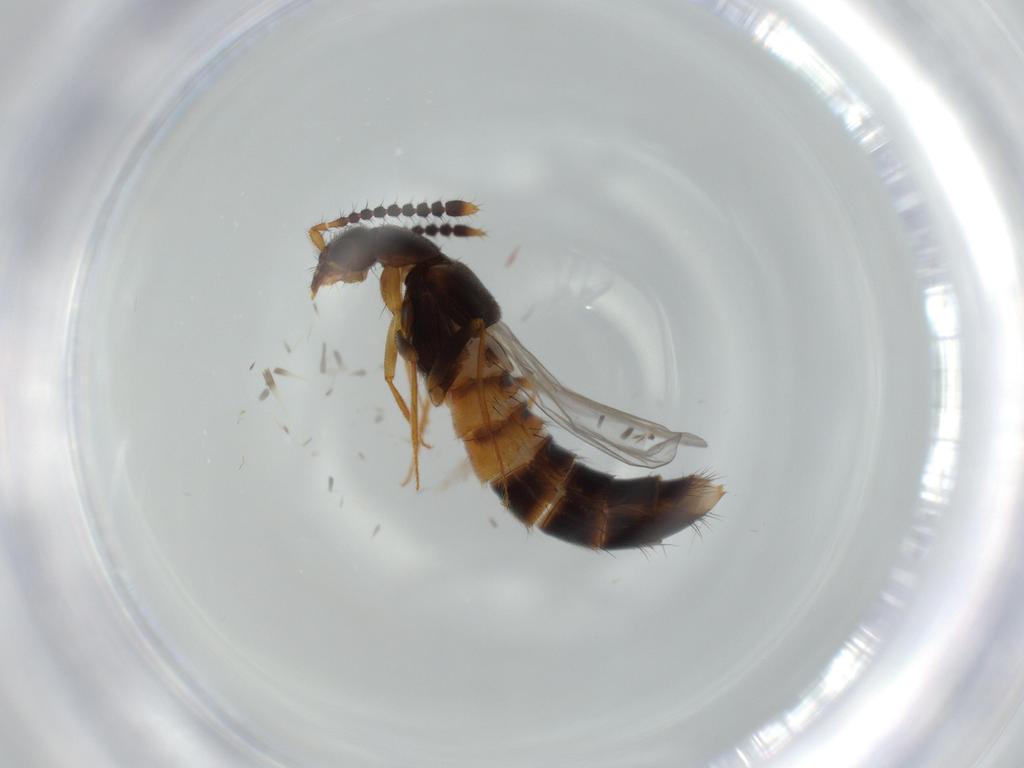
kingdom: Animalia
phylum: Arthropoda
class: Insecta
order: Coleoptera
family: Staphylinidae
